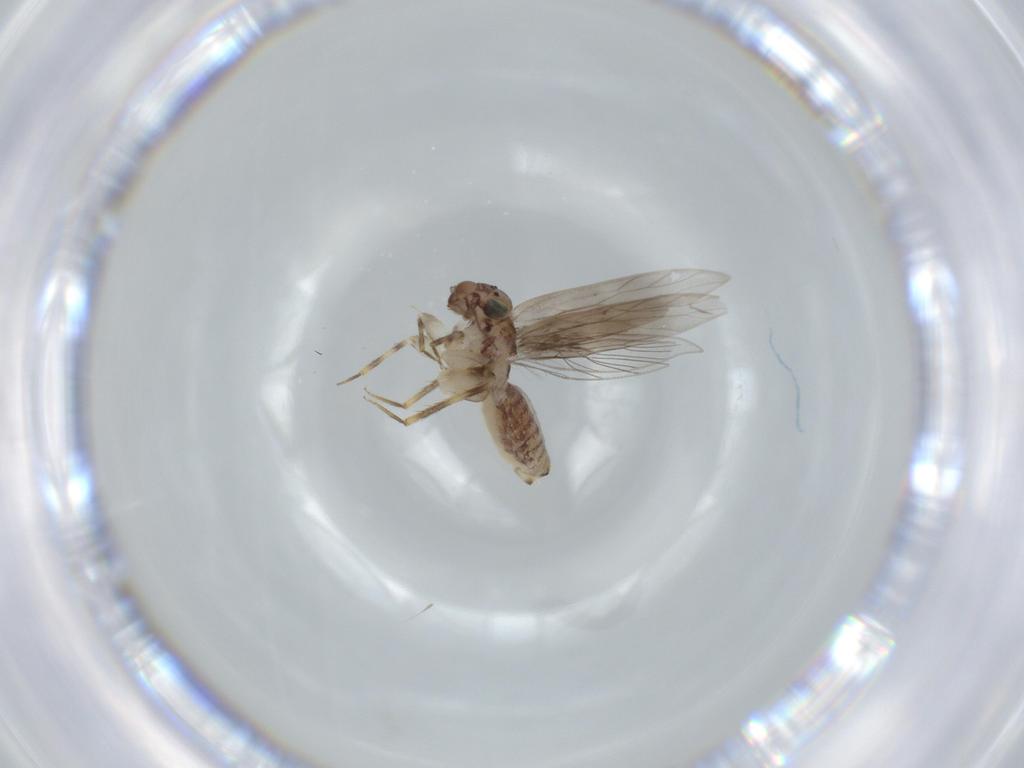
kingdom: Animalia
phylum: Arthropoda
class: Insecta
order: Psocodea
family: Lepidopsocidae
